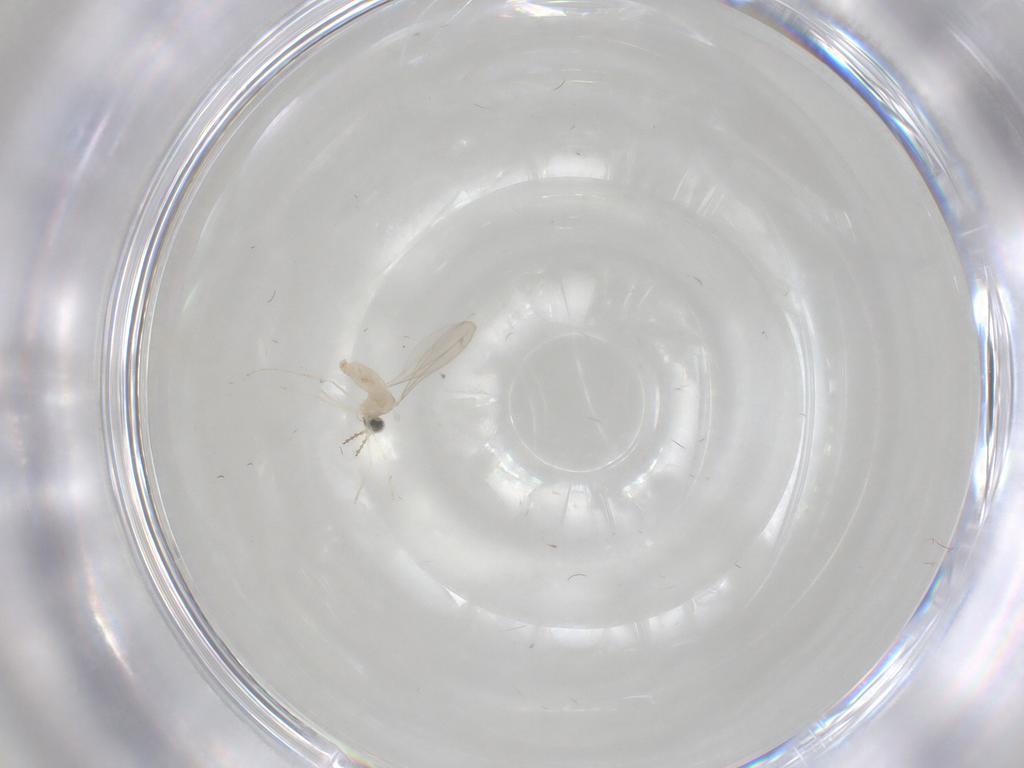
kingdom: Animalia
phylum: Arthropoda
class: Insecta
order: Diptera
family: Cecidomyiidae
